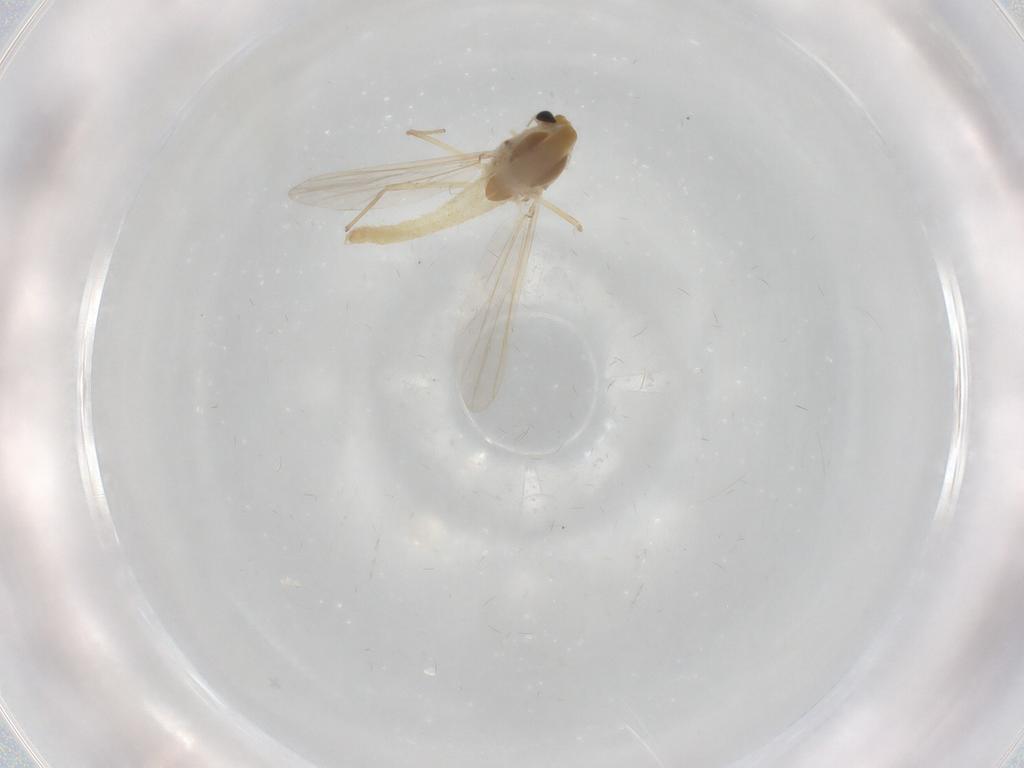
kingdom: Animalia
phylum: Arthropoda
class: Insecta
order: Diptera
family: Chironomidae
